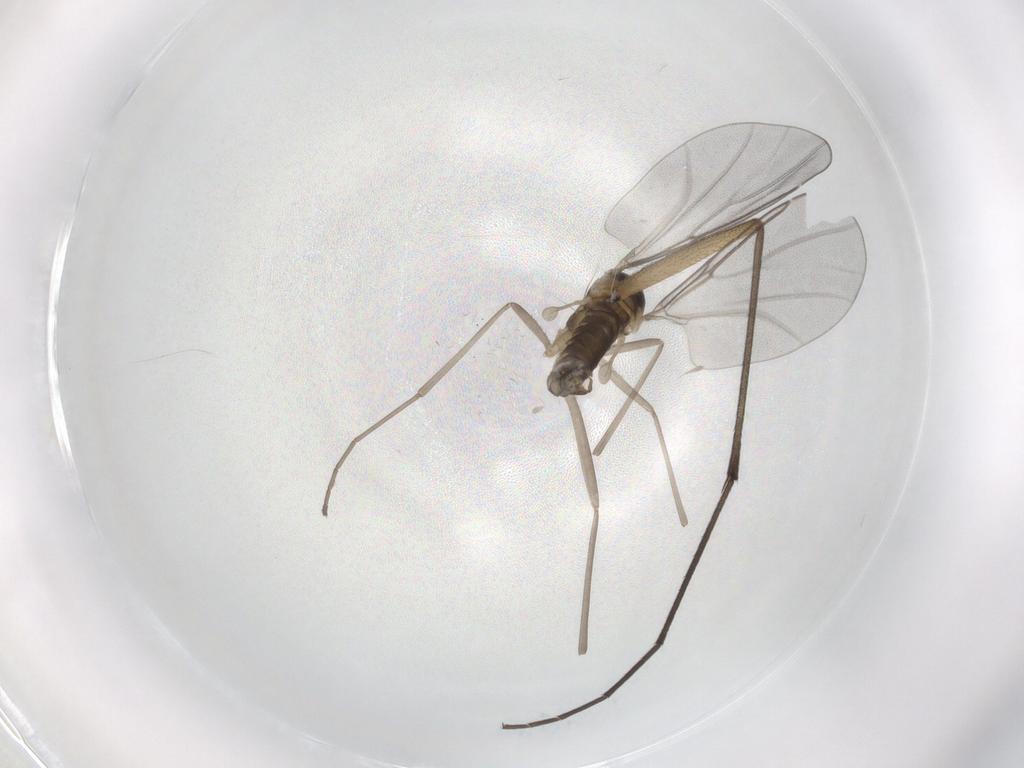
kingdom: Animalia
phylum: Arthropoda
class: Insecta
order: Diptera
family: Cecidomyiidae
